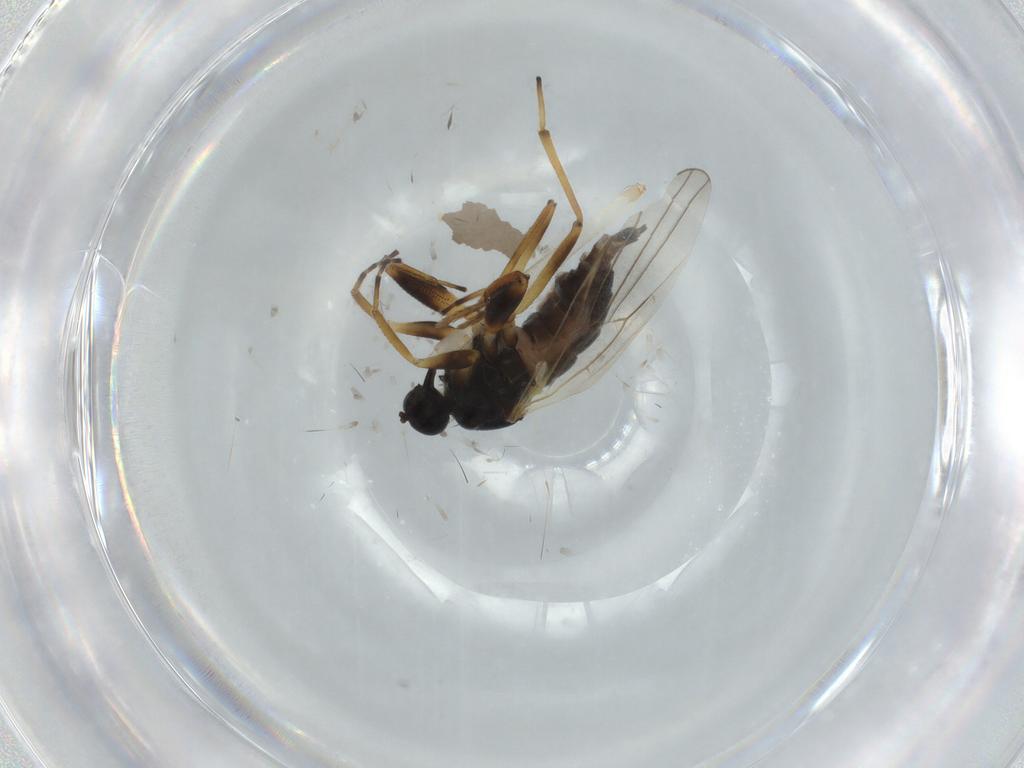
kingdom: Animalia
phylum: Arthropoda
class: Insecta
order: Diptera
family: Hybotidae
